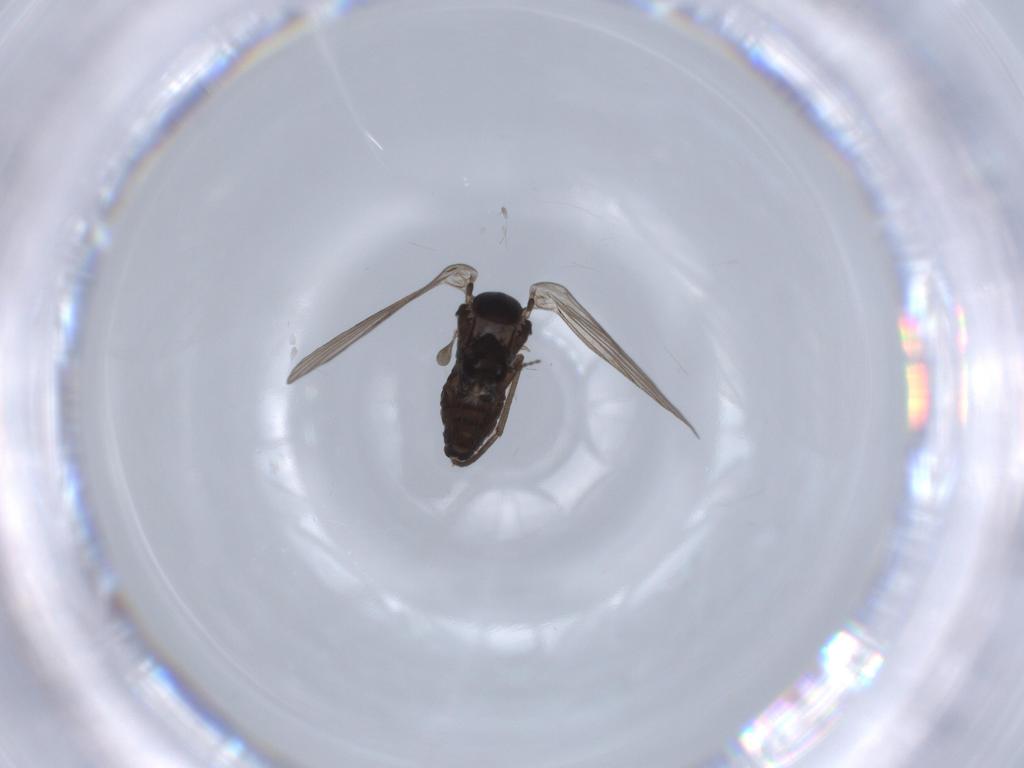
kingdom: Animalia
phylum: Arthropoda
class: Insecta
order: Diptera
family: Psychodidae
